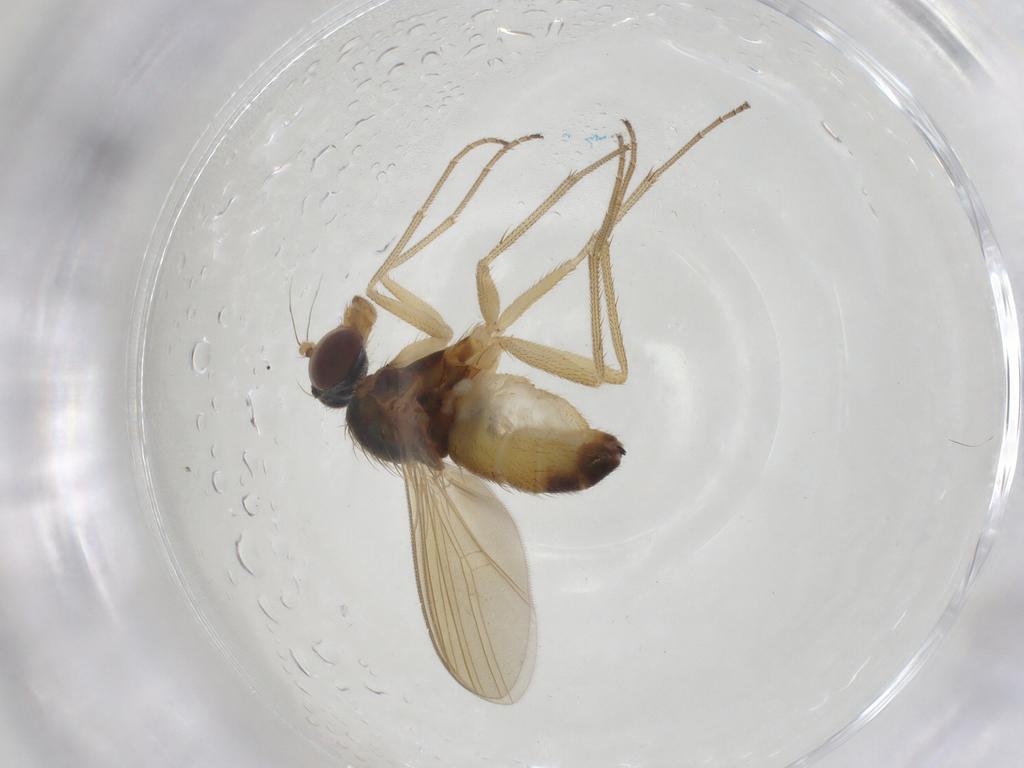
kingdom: Animalia
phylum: Arthropoda
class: Insecta
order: Diptera
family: Dolichopodidae
